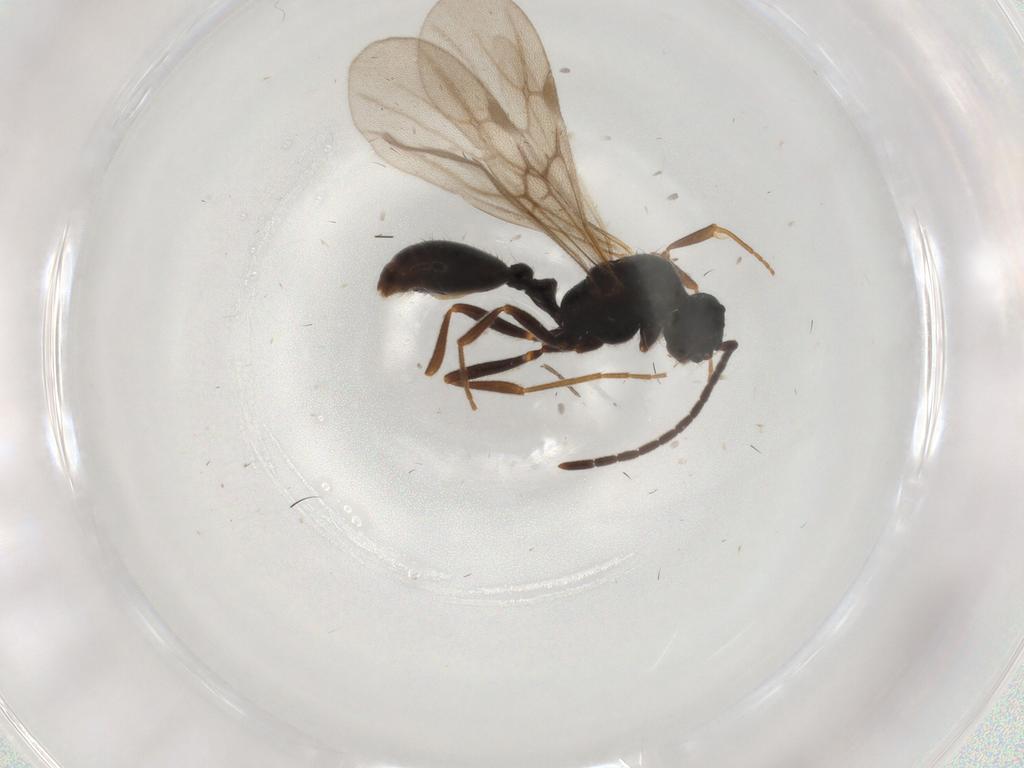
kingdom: Animalia
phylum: Arthropoda
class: Insecta
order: Hymenoptera
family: Formicidae
